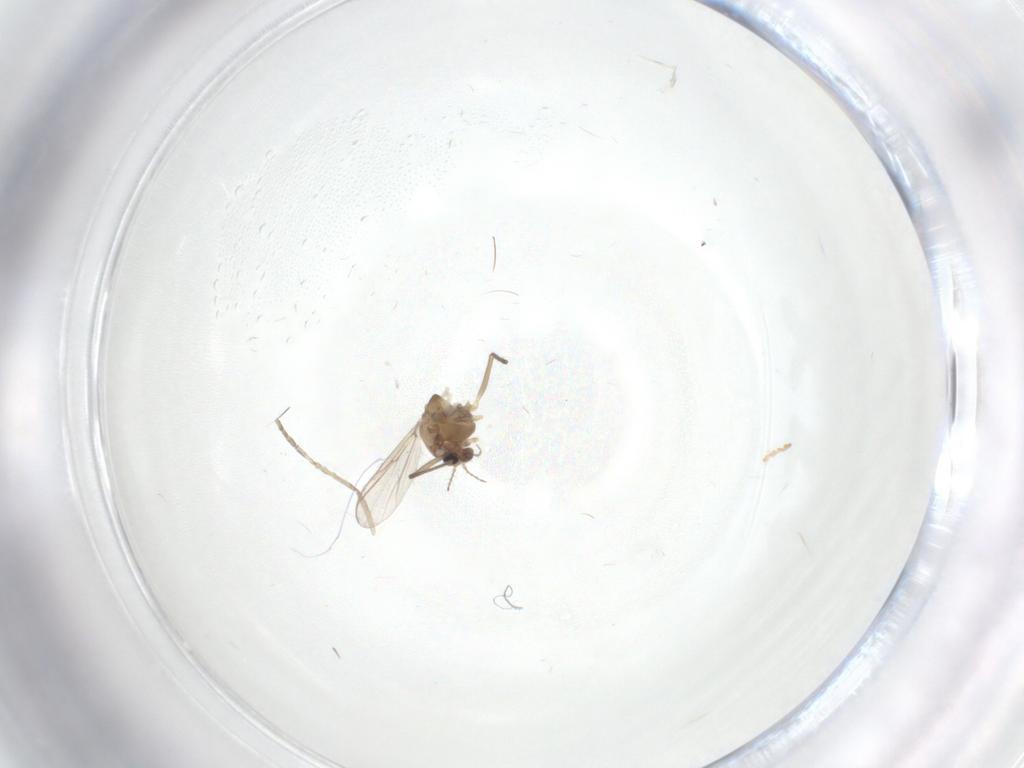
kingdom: Animalia
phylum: Arthropoda
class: Insecta
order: Diptera
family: Chironomidae
